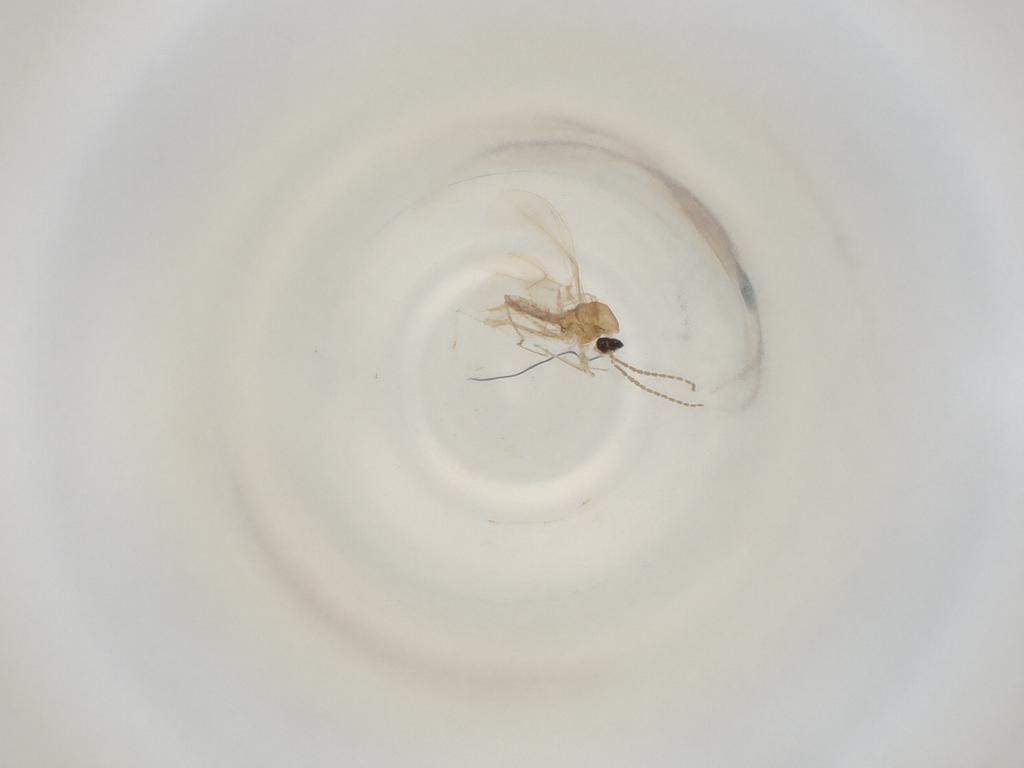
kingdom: Animalia
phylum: Arthropoda
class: Insecta
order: Diptera
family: Cecidomyiidae
